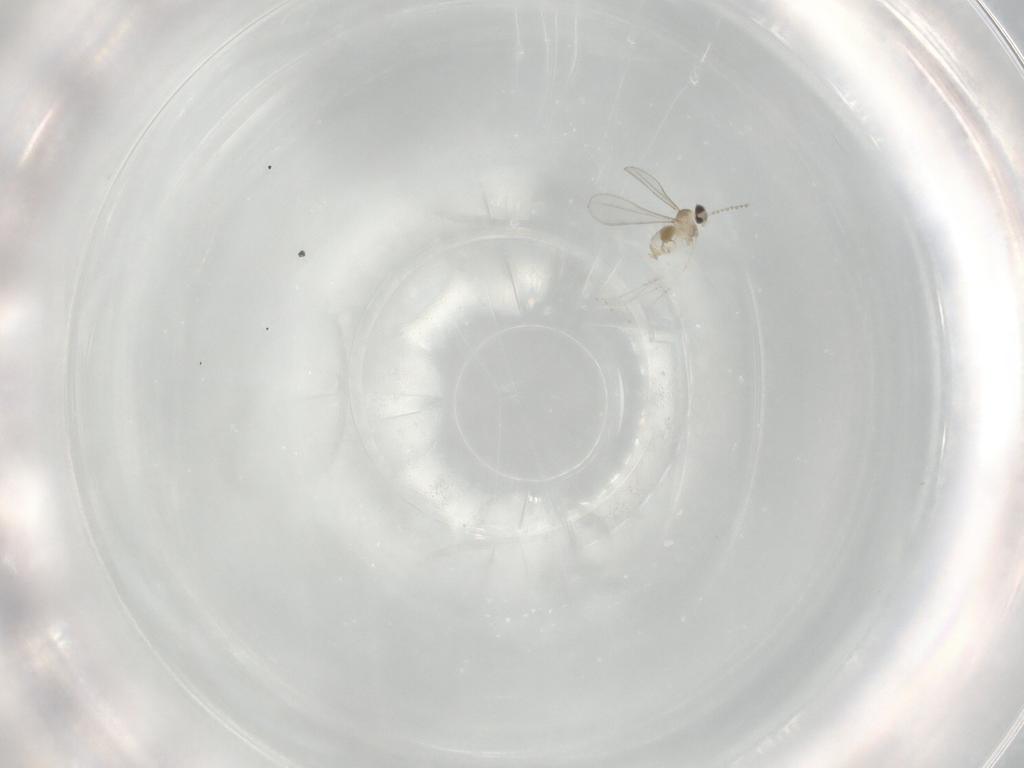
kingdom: Animalia
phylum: Arthropoda
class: Insecta
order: Diptera
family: Cecidomyiidae
